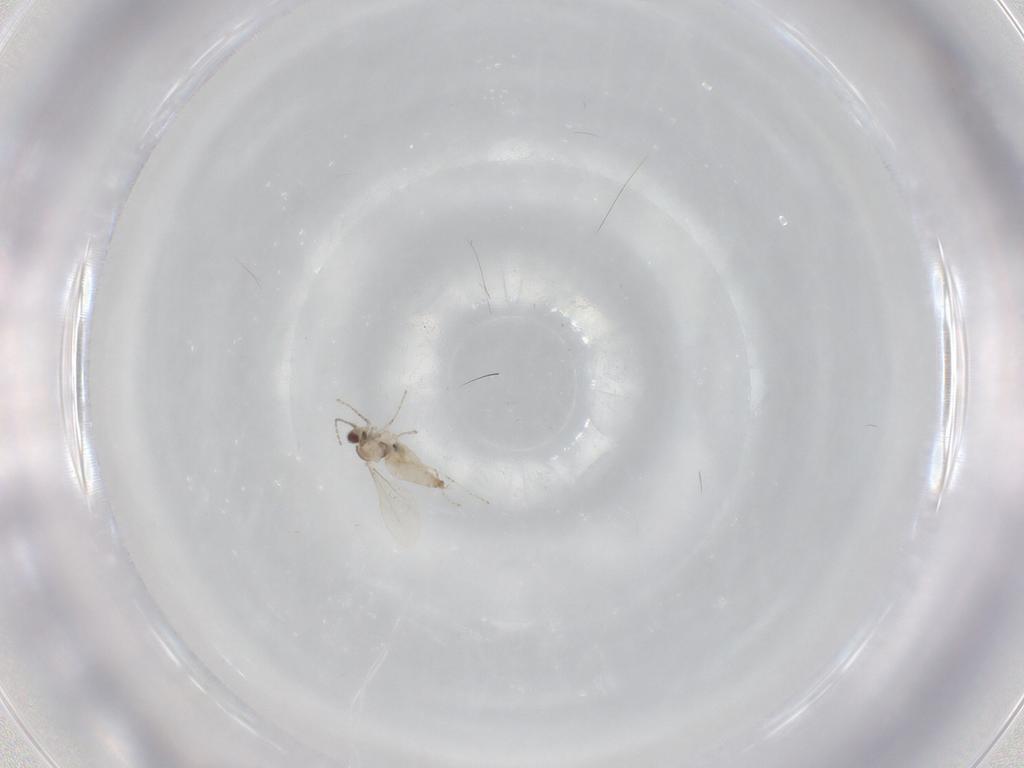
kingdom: Animalia
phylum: Arthropoda
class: Insecta
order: Diptera
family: Cecidomyiidae
